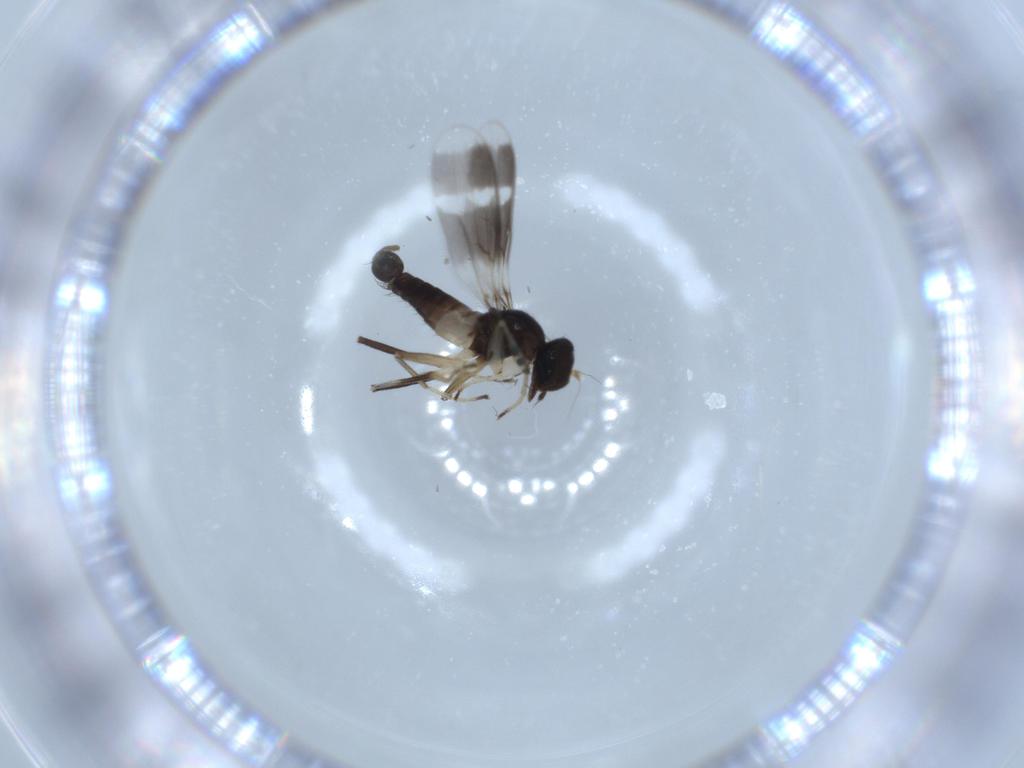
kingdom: Animalia
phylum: Arthropoda
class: Insecta
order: Diptera
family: Hybotidae
